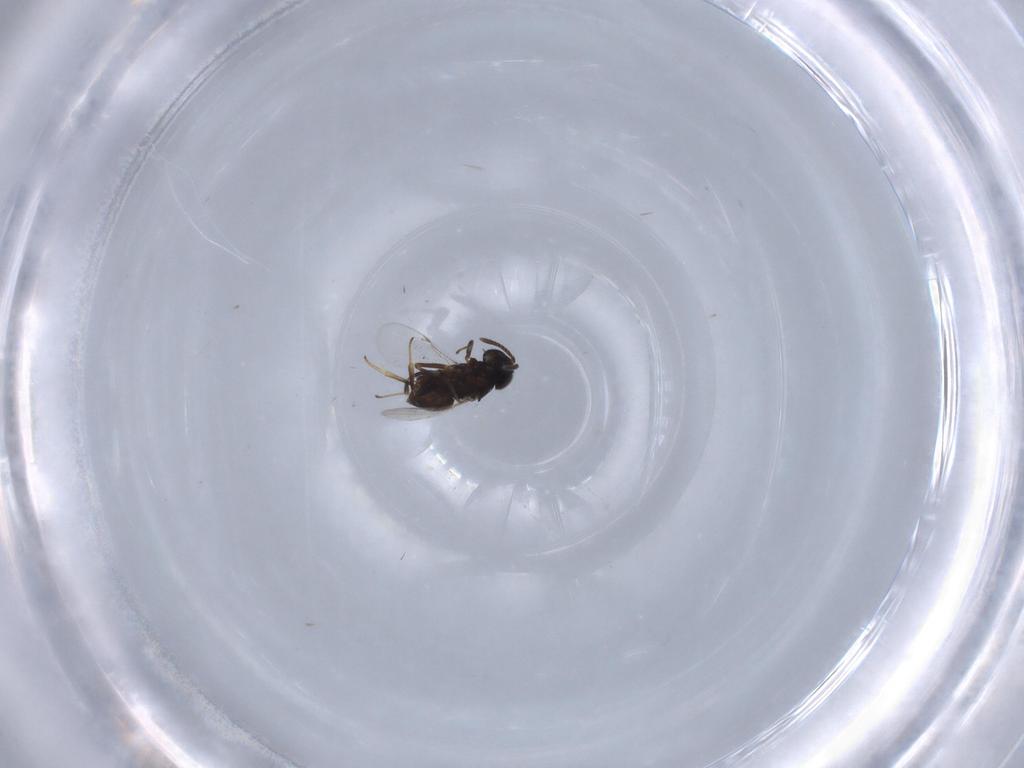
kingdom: Animalia
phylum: Arthropoda
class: Insecta
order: Hymenoptera
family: Encyrtidae
